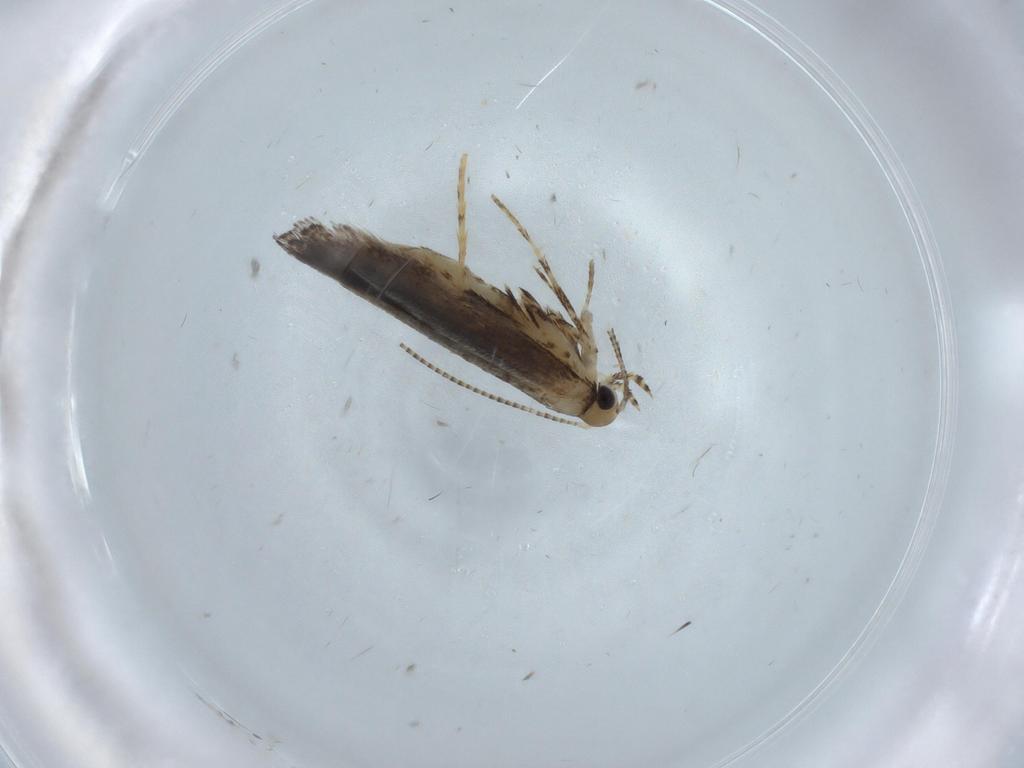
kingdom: Animalia
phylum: Arthropoda
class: Insecta
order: Lepidoptera
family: Gracillariidae
